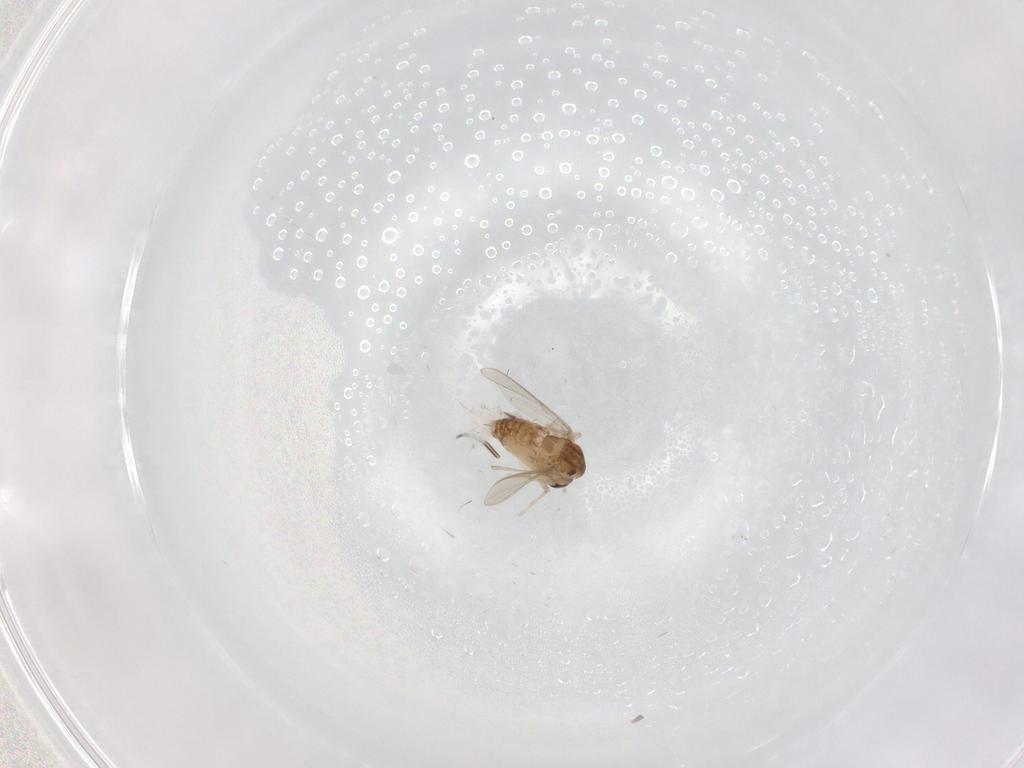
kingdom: Animalia
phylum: Arthropoda
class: Insecta
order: Diptera
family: Chironomidae
